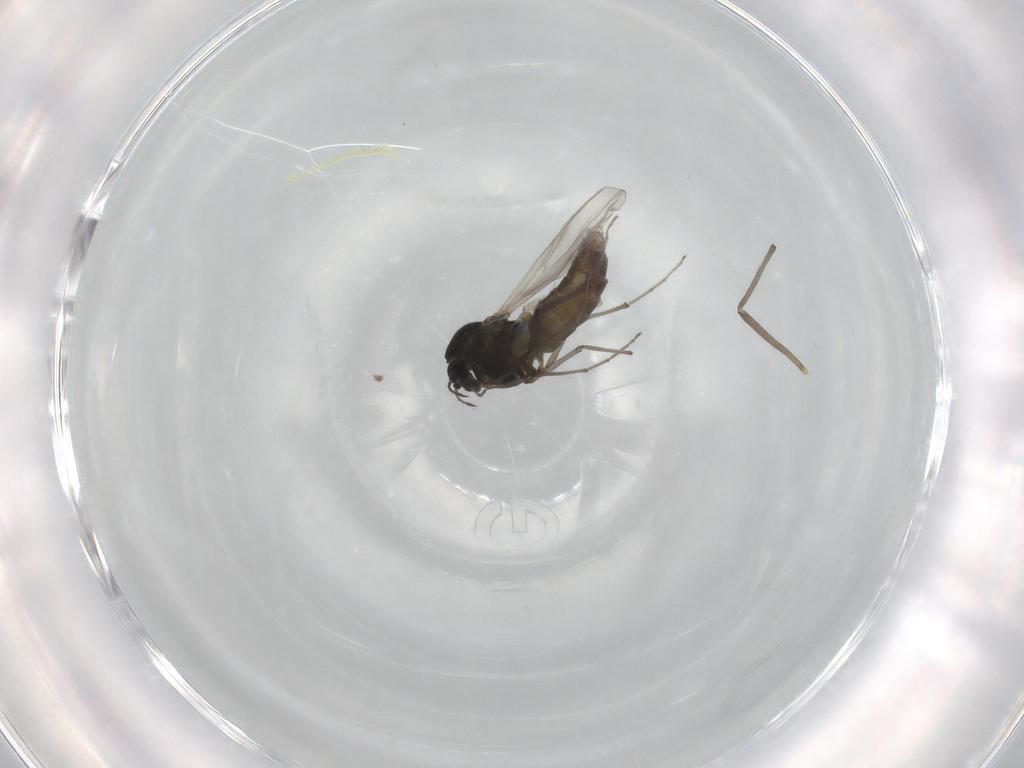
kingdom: Animalia
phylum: Arthropoda
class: Insecta
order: Diptera
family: Chironomidae
